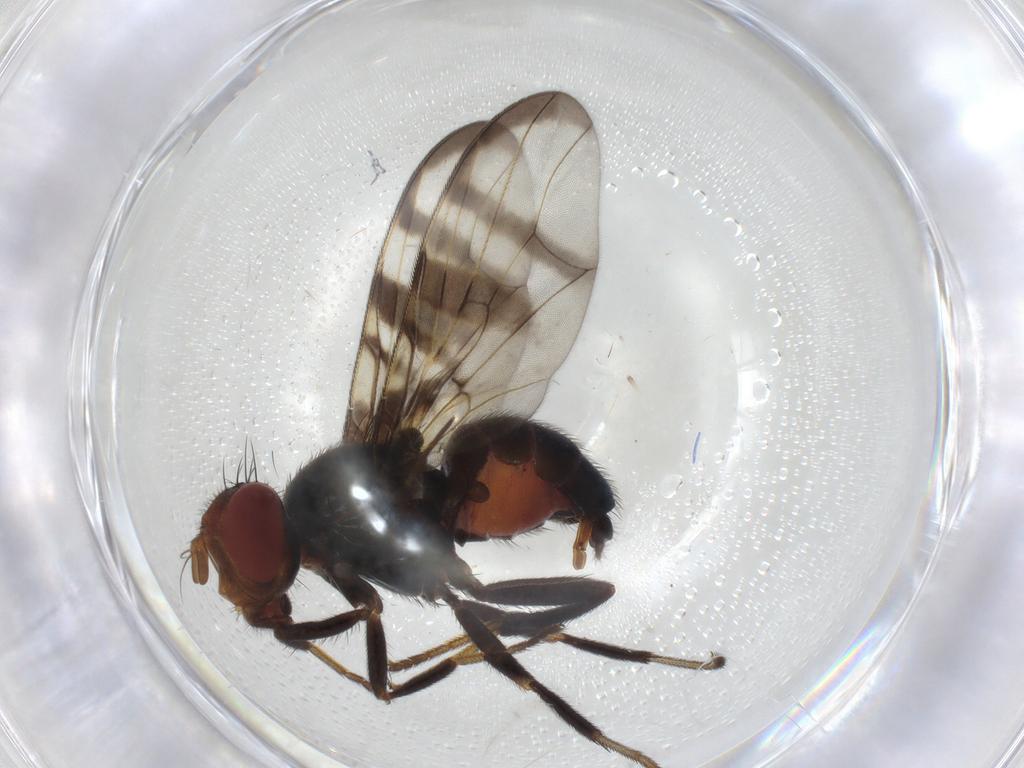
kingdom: Animalia
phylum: Arthropoda
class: Insecta
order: Diptera
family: Platystomatidae
